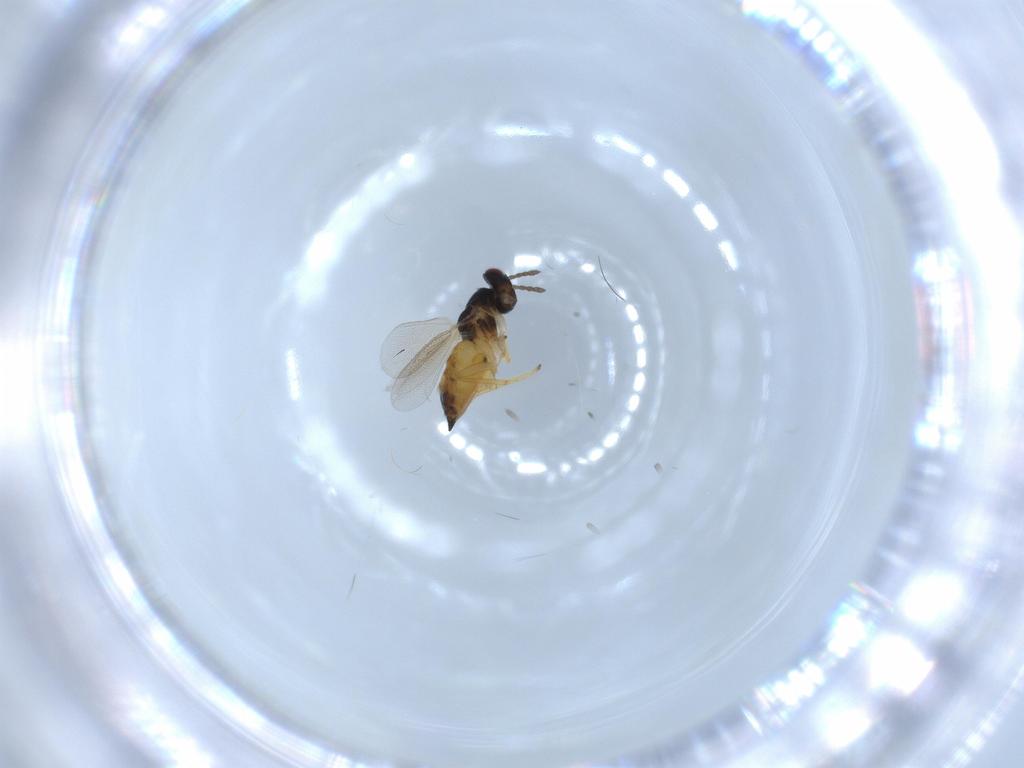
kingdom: Animalia
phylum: Arthropoda
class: Insecta
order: Hymenoptera
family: Eulophidae
